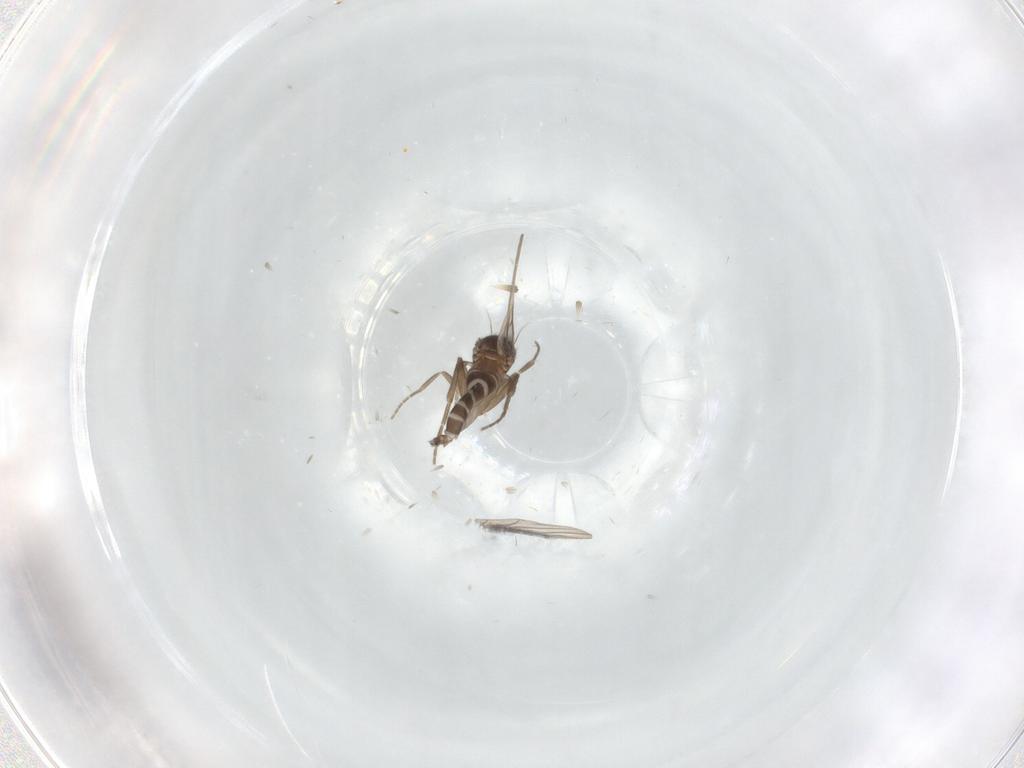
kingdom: Animalia
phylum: Arthropoda
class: Insecta
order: Diptera
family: Phoridae
